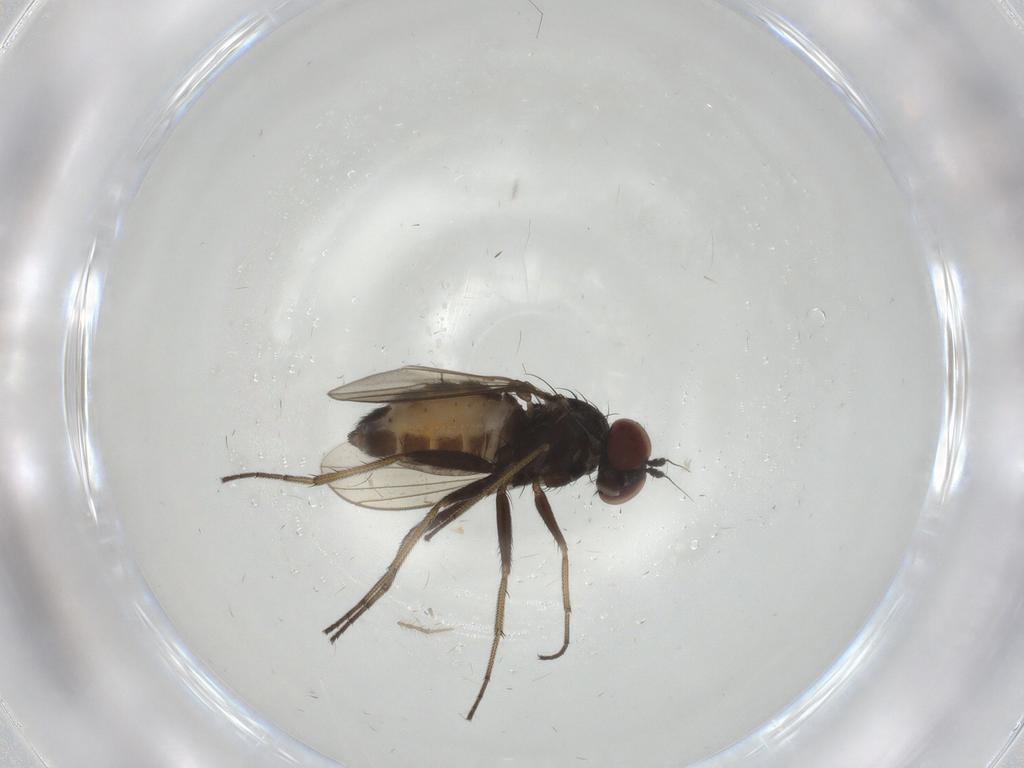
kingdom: Animalia
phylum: Arthropoda
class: Insecta
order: Diptera
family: Dolichopodidae
